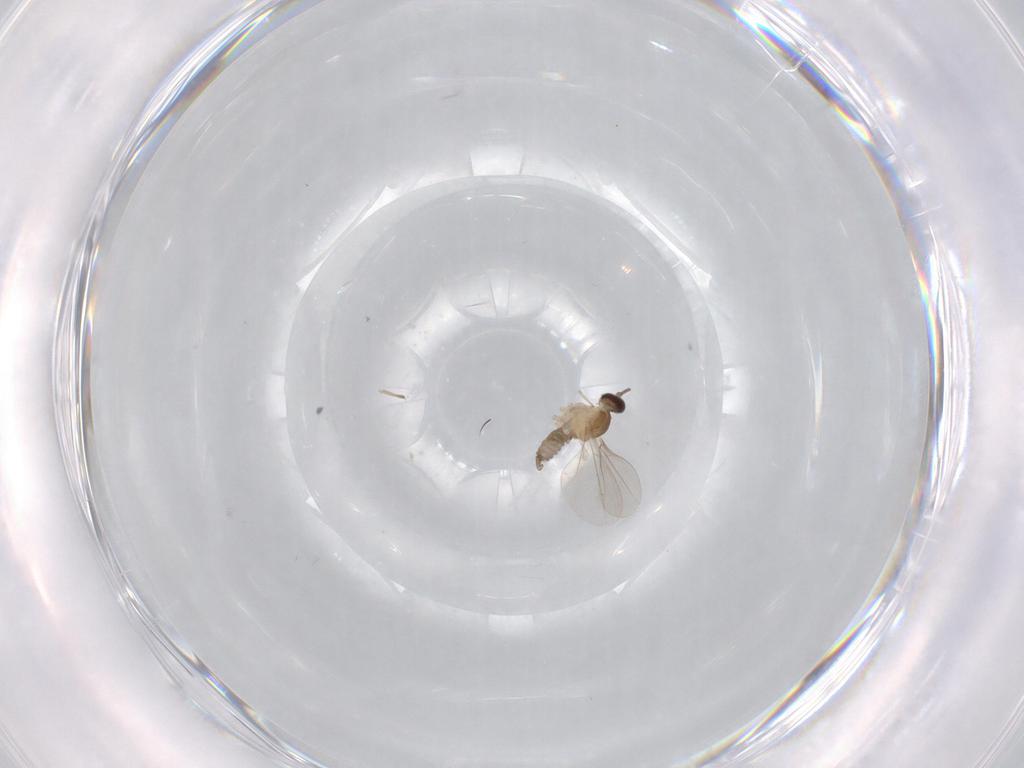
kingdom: Animalia
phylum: Arthropoda
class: Insecta
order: Diptera
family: Cecidomyiidae
